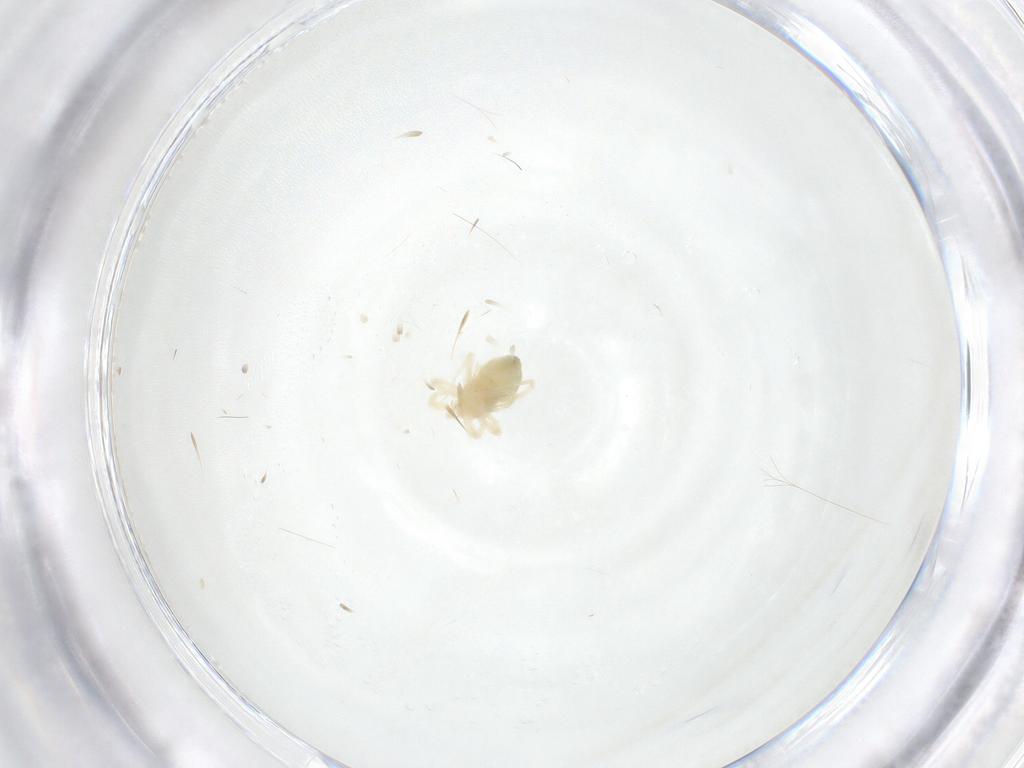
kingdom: Animalia
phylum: Arthropoda
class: Arachnida
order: Trombidiformes
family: Anystidae
